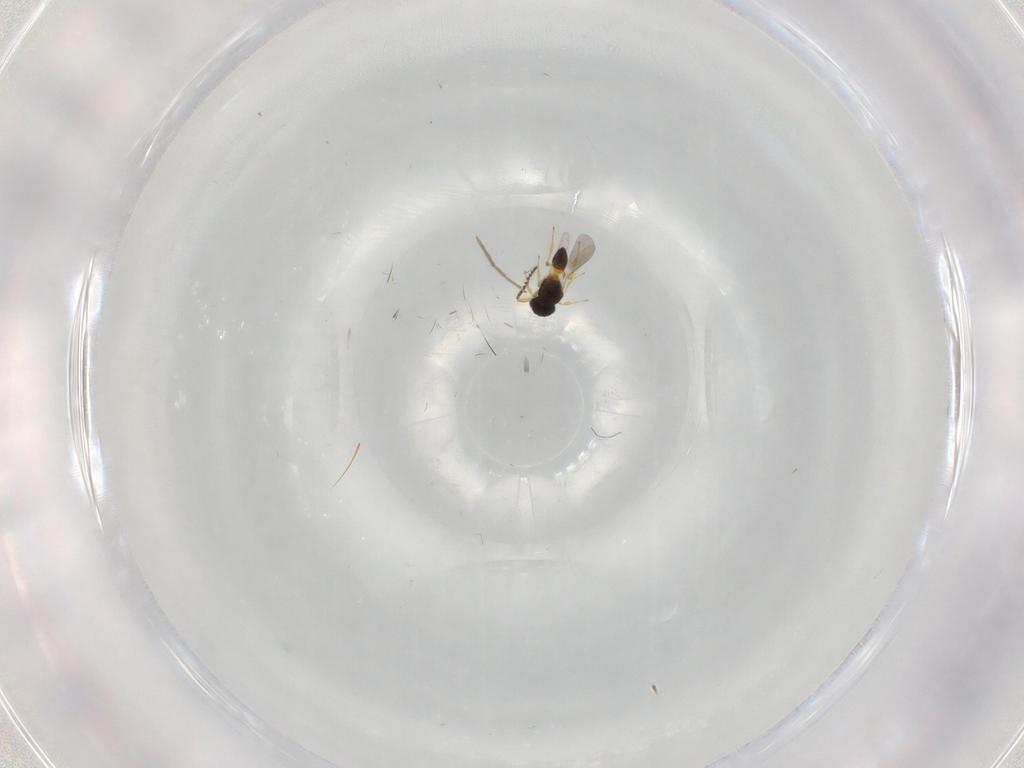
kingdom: Animalia
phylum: Arthropoda
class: Insecta
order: Hymenoptera
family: Platygastridae
